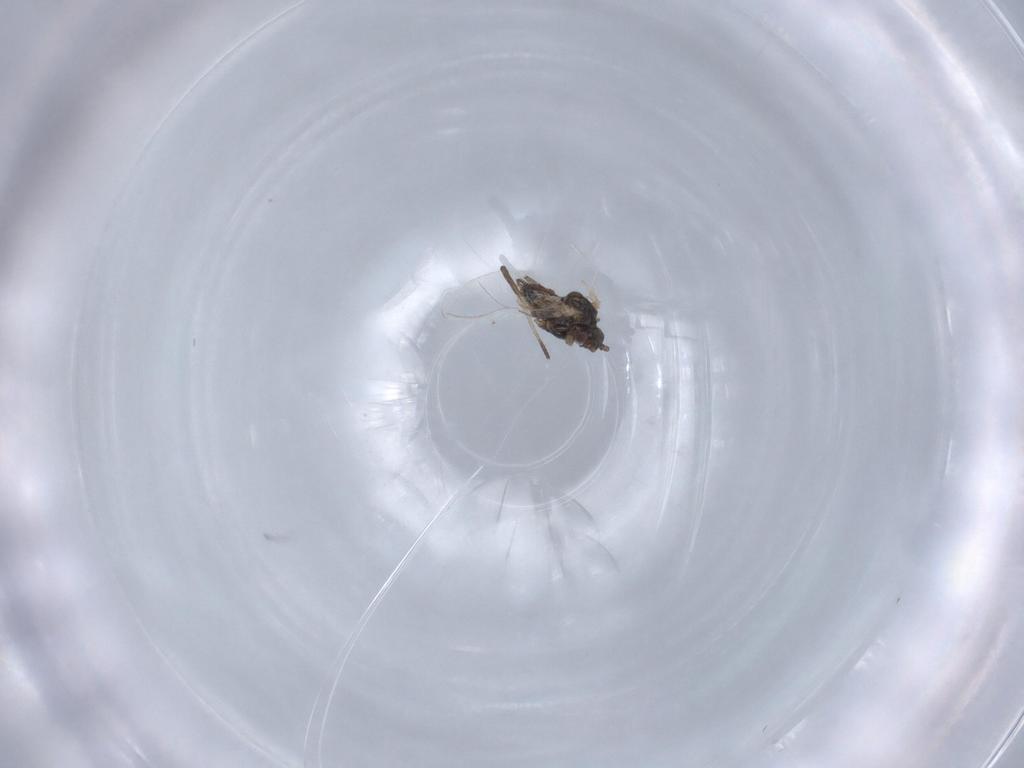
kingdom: Animalia
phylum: Arthropoda
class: Insecta
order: Hemiptera
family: Aphididae
